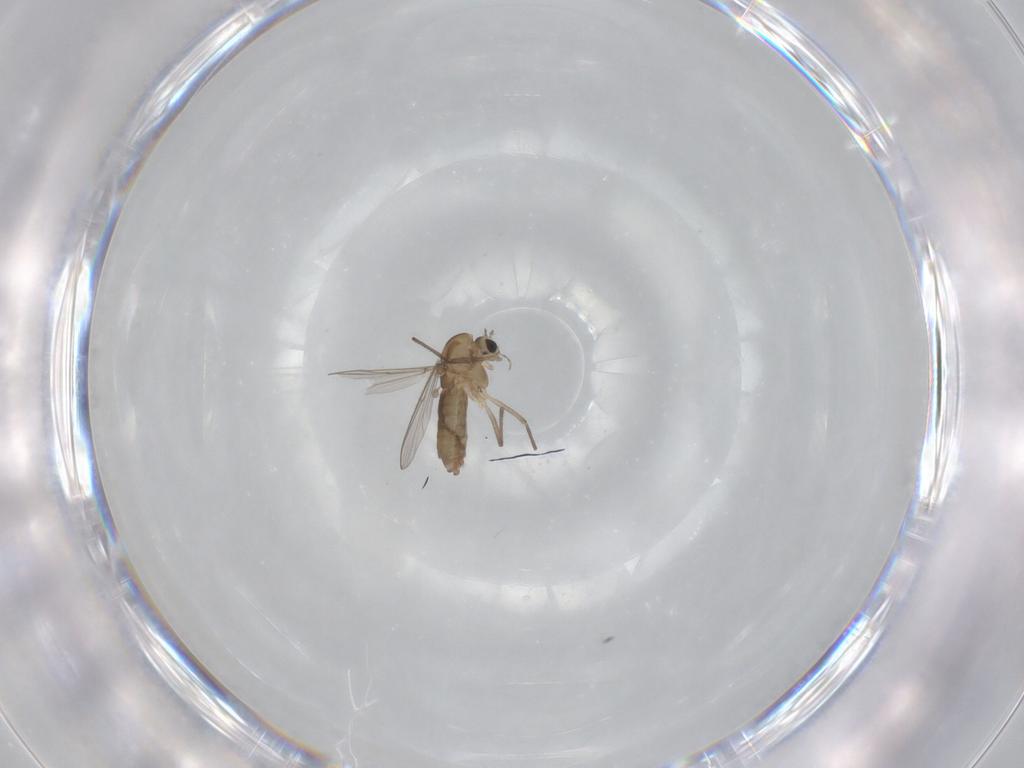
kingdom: Animalia
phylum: Arthropoda
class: Insecta
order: Diptera
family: Chironomidae
